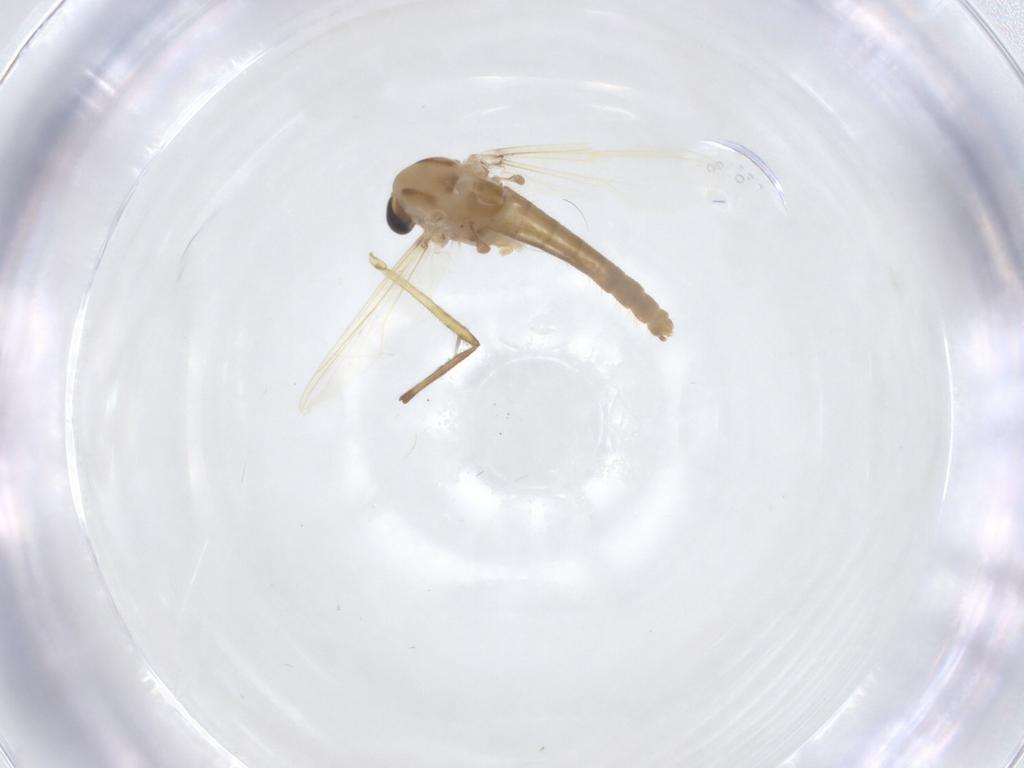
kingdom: Animalia
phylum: Arthropoda
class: Insecta
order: Diptera
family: Chironomidae
